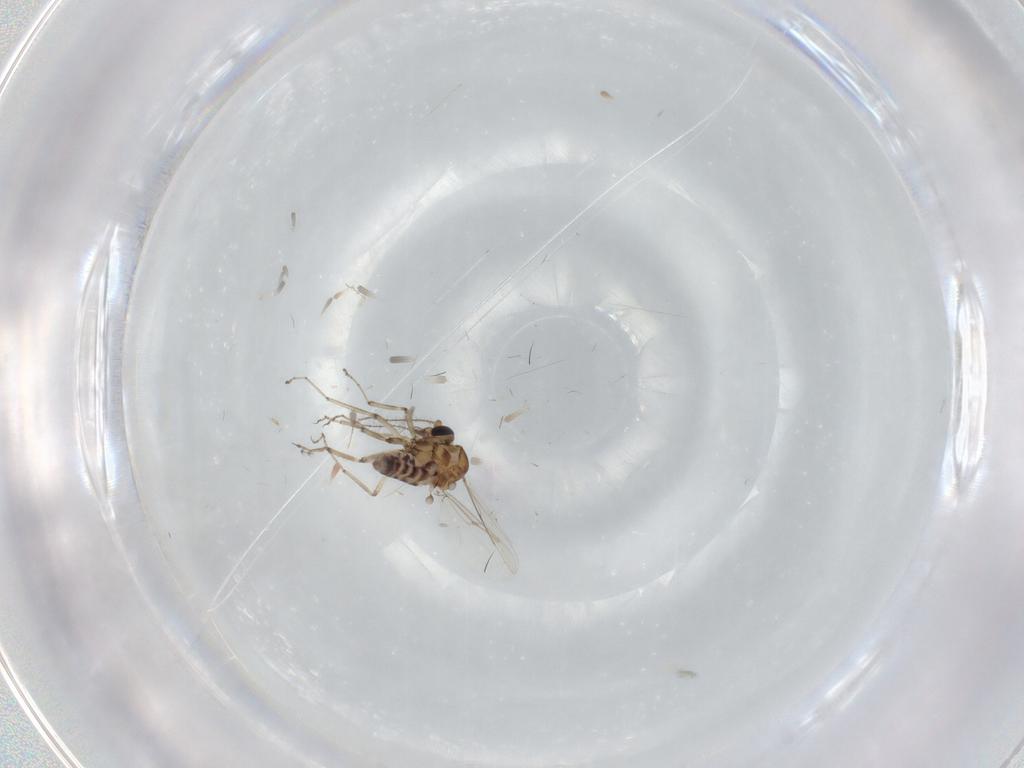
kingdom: Animalia
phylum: Arthropoda
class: Insecta
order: Diptera
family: Ceratopogonidae
